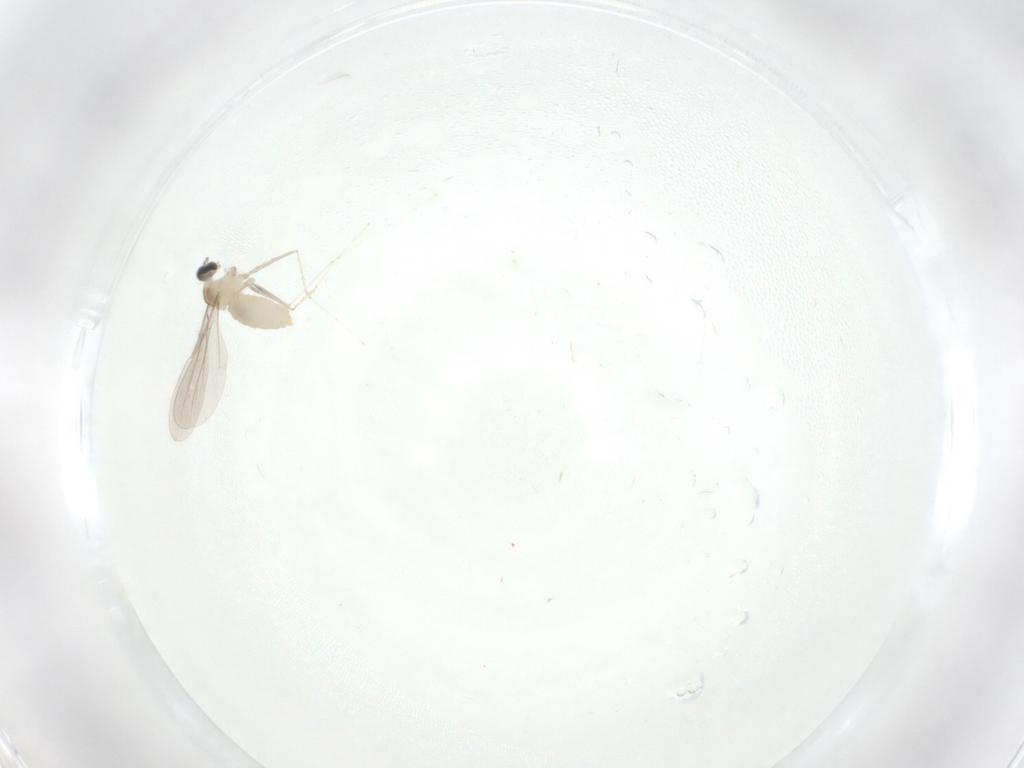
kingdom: Animalia
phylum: Arthropoda
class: Insecta
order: Diptera
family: Cecidomyiidae
